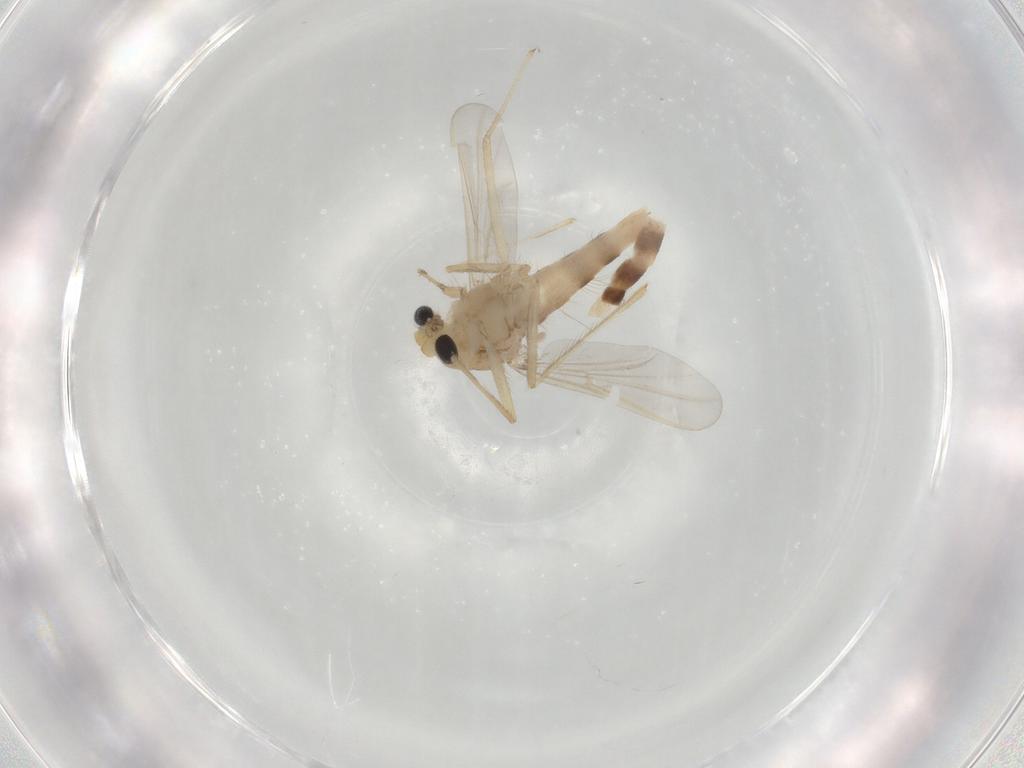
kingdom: Animalia
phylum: Arthropoda
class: Insecta
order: Diptera
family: Chironomidae
